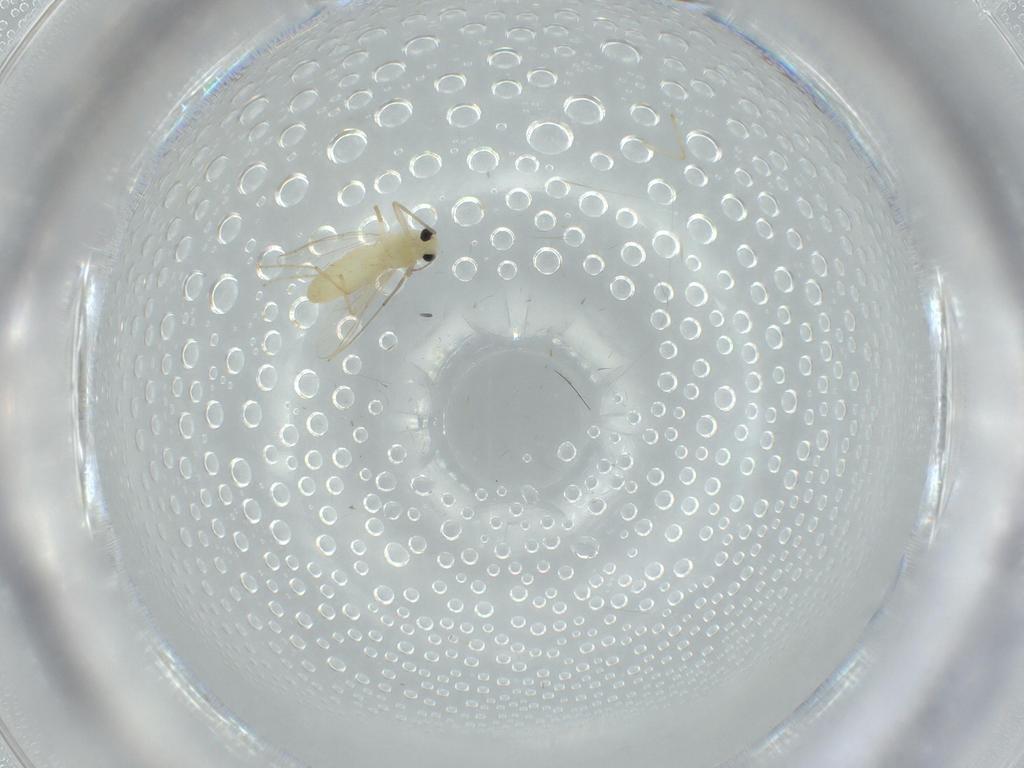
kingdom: Animalia
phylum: Arthropoda
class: Insecta
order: Diptera
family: Chironomidae
